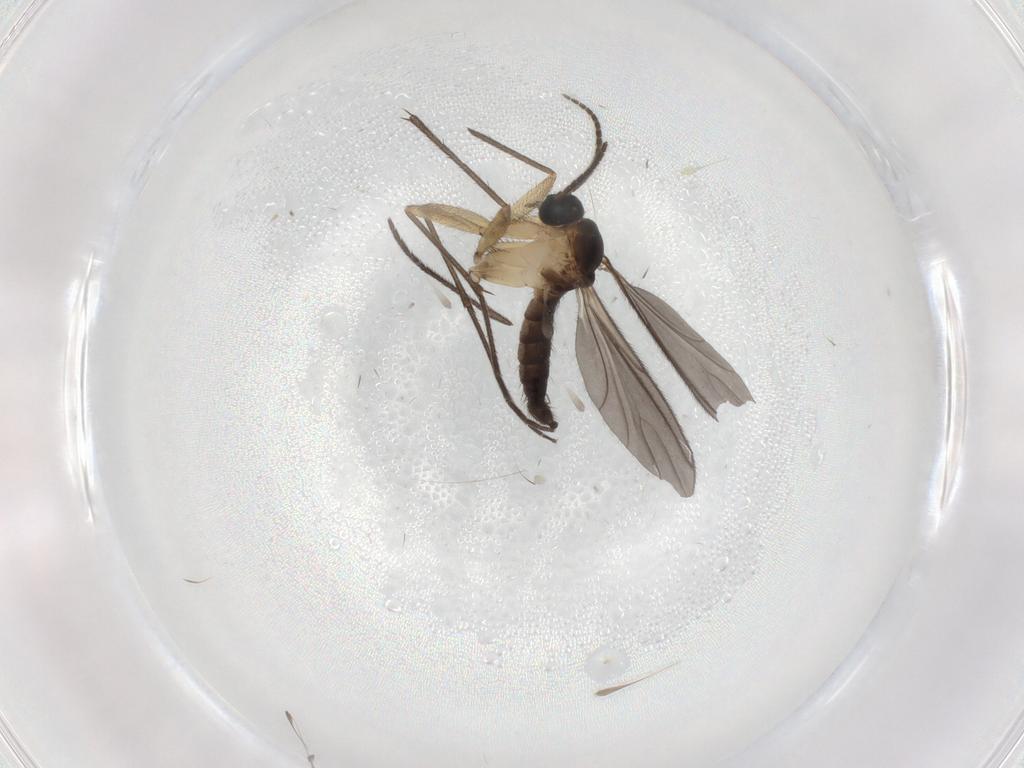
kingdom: Animalia
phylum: Arthropoda
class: Insecta
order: Diptera
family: Sciaridae
